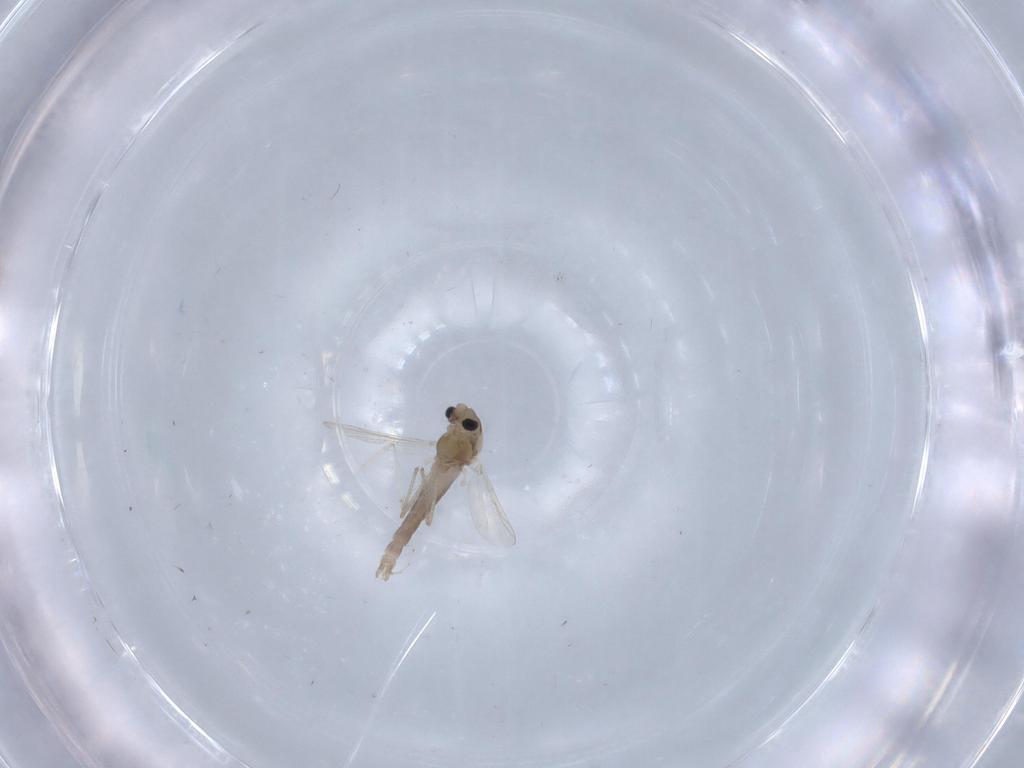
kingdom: Animalia
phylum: Arthropoda
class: Insecta
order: Diptera
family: Chironomidae
